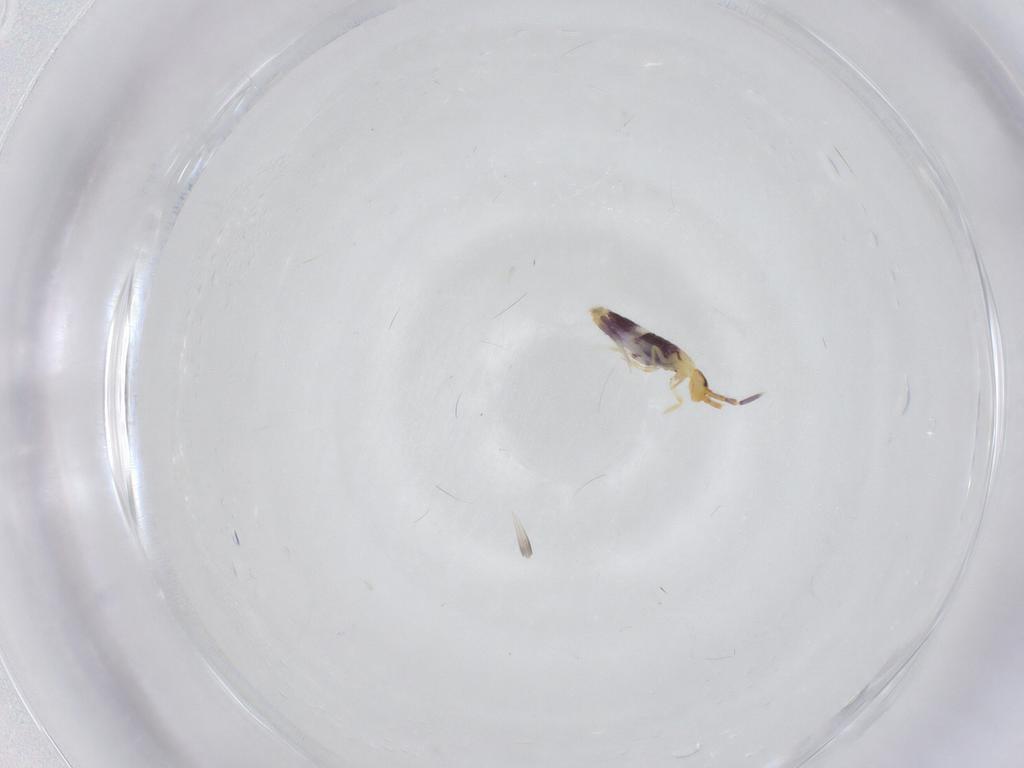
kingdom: Animalia
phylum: Arthropoda
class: Collembola
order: Entomobryomorpha
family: Entomobryidae
